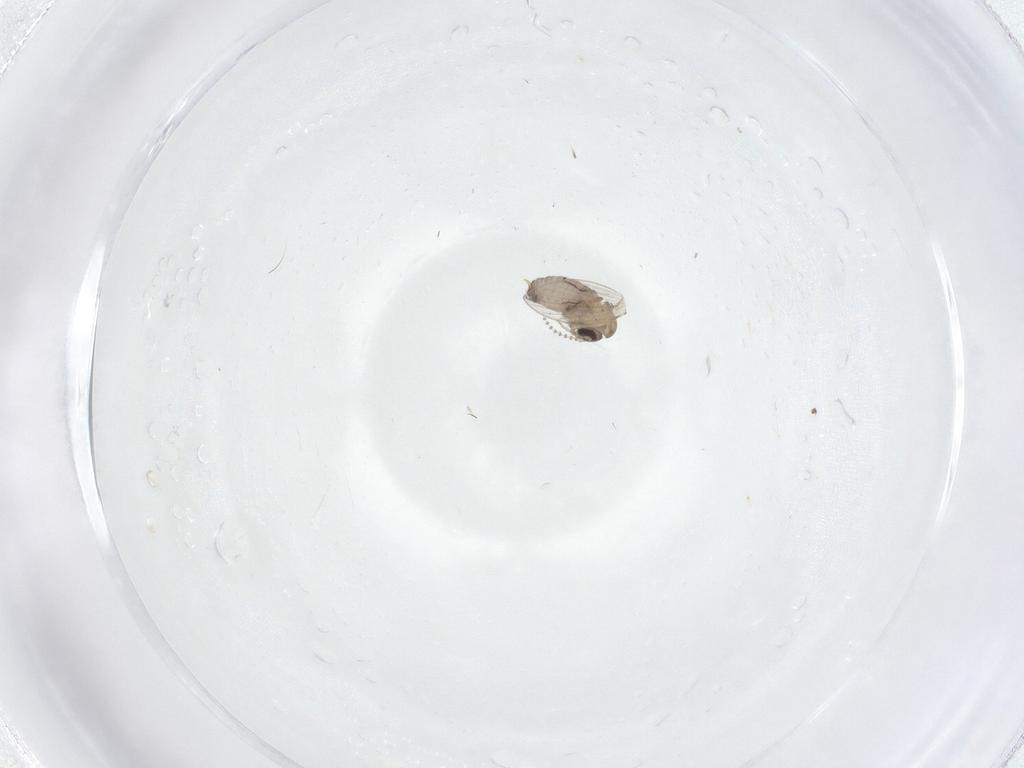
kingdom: Animalia
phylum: Arthropoda
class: Insecta
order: Diptera
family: Psychodidae
